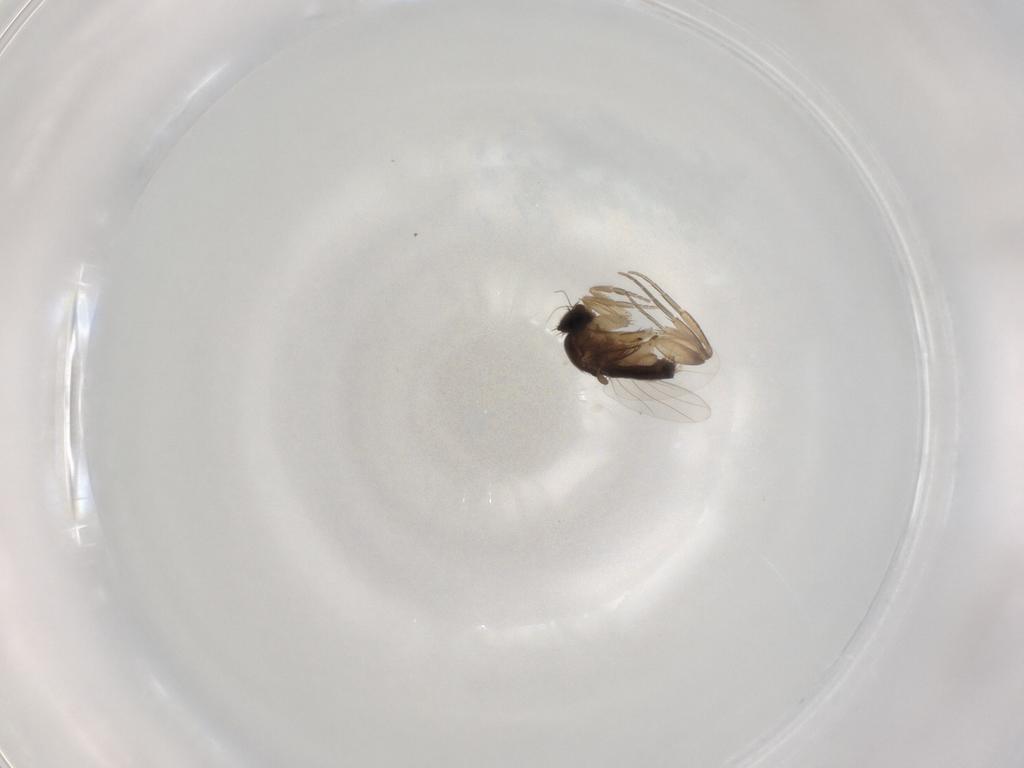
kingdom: Animalia
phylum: Arthropoda
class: Insecta
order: Diptera
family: Phoridae
